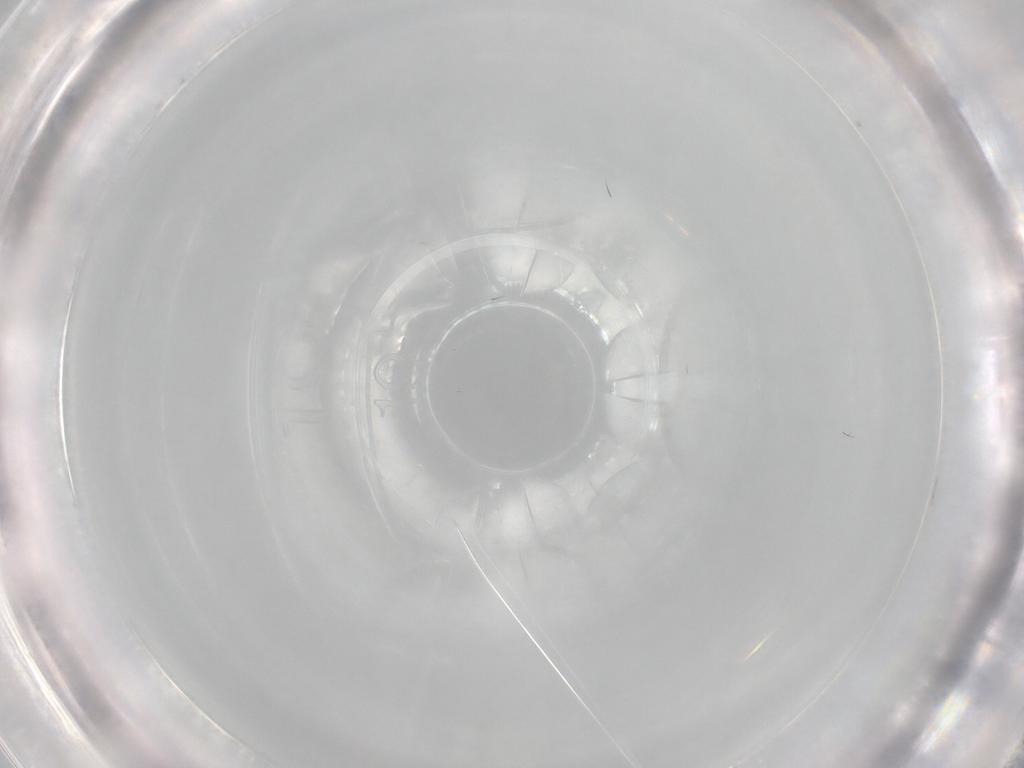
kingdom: Animalia
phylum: Arthropoda
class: Insecta
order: Diptera
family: Cecidomyiidae
